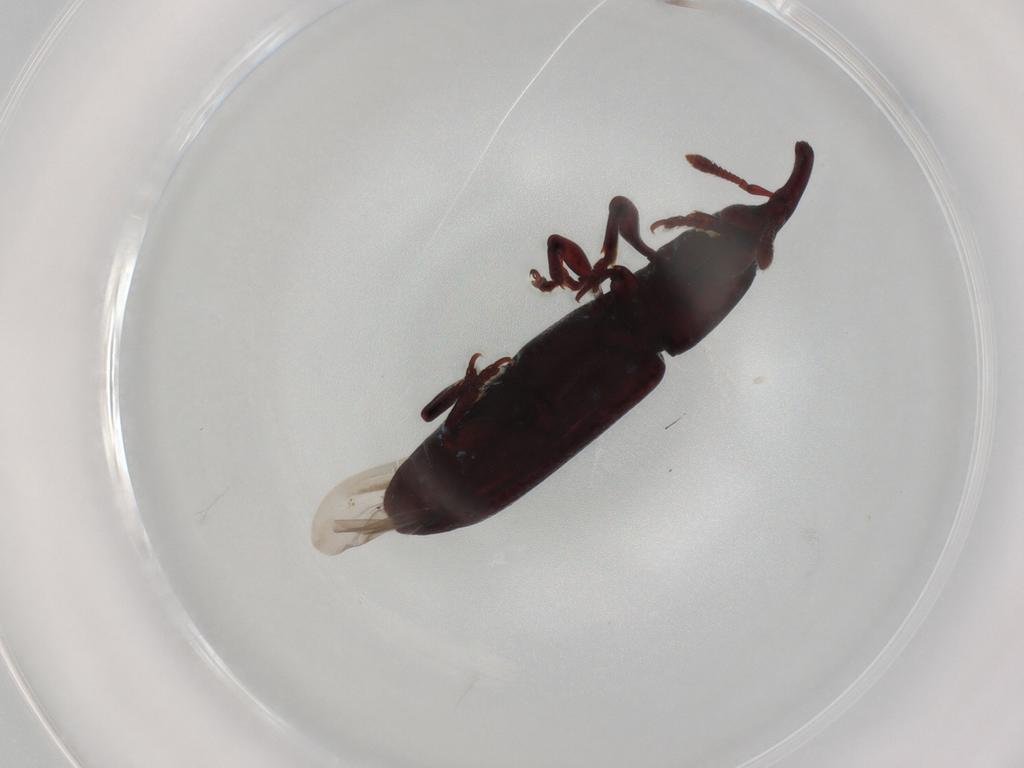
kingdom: Animalia
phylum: Arthropoda
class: Insecta
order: Coleoptera
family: Curculionidae
